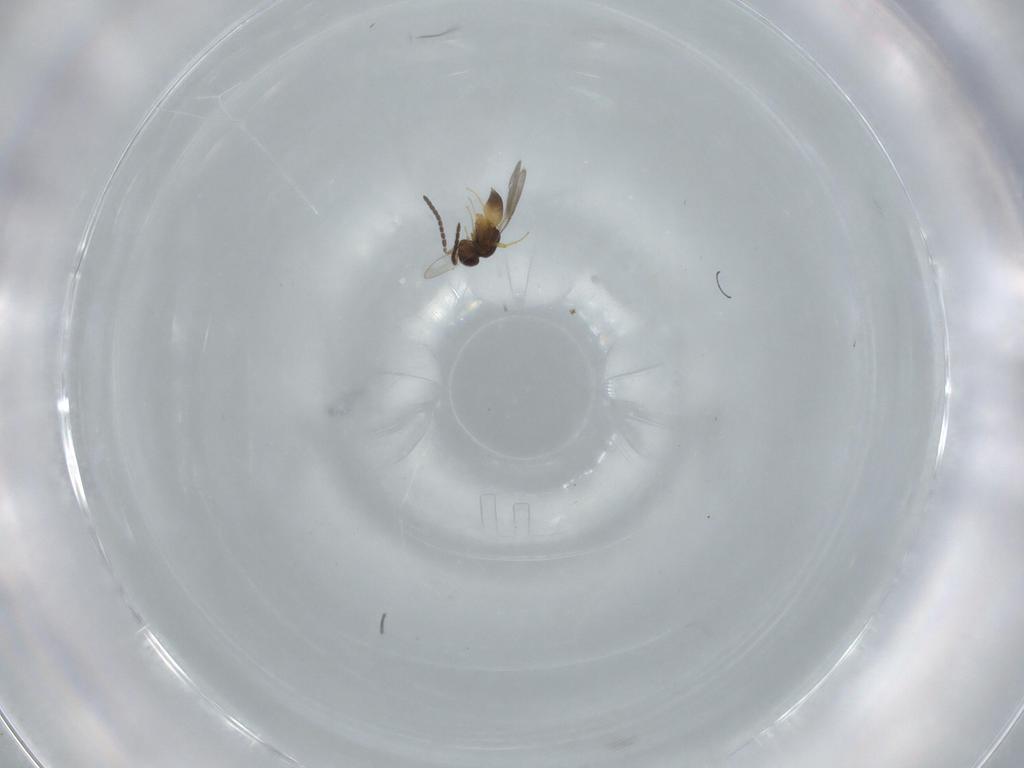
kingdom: Animalia
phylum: Arthropoda
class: Insecta
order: Hymenoptera
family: Ceraphronidae
